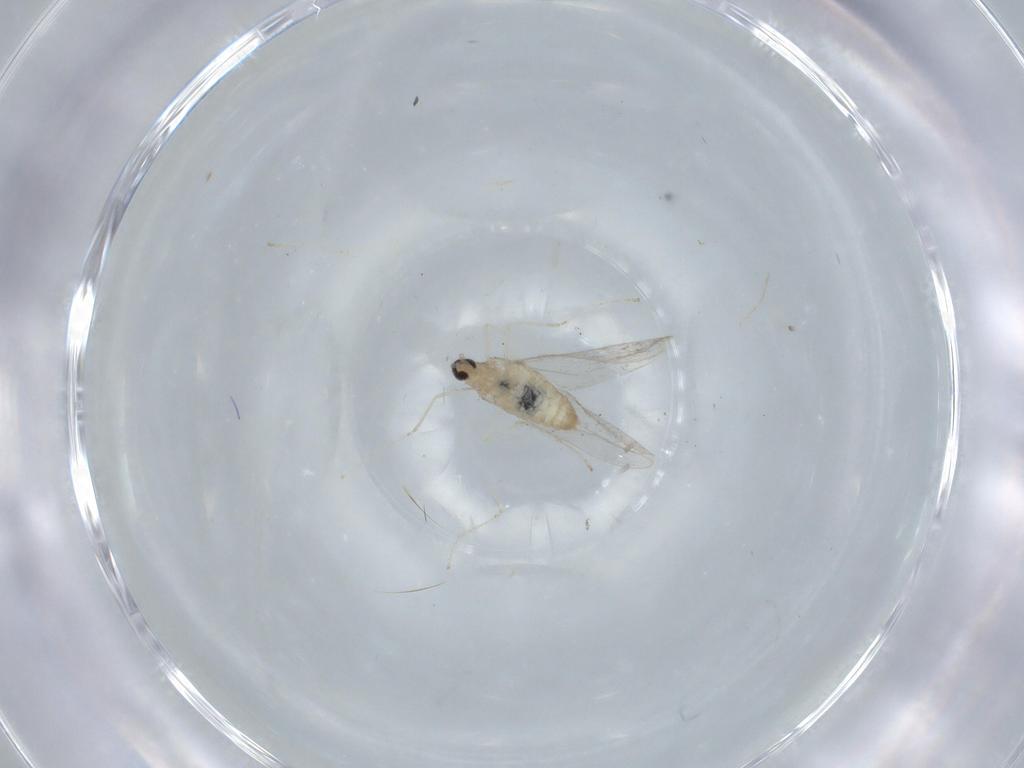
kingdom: Animalia
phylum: Arthropoda
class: Insecta
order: Diptera
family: Cecidomyiidae
